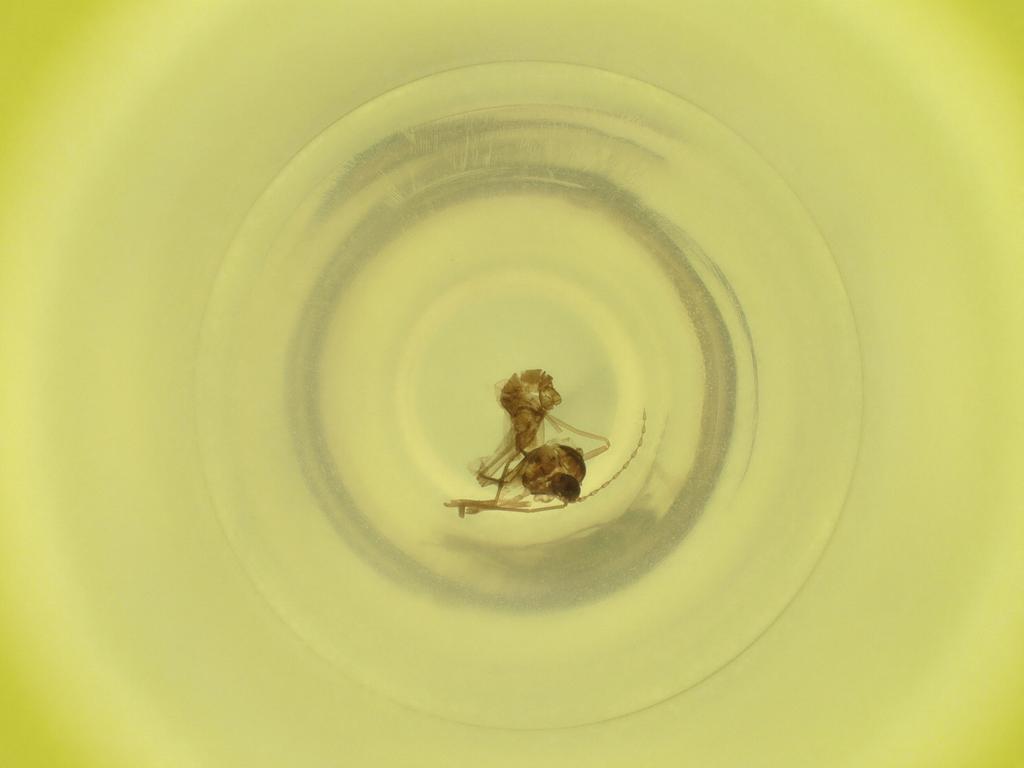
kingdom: Animalia
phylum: Arthropoda
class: Insecta
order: Diptera
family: Cecidomyiidae
